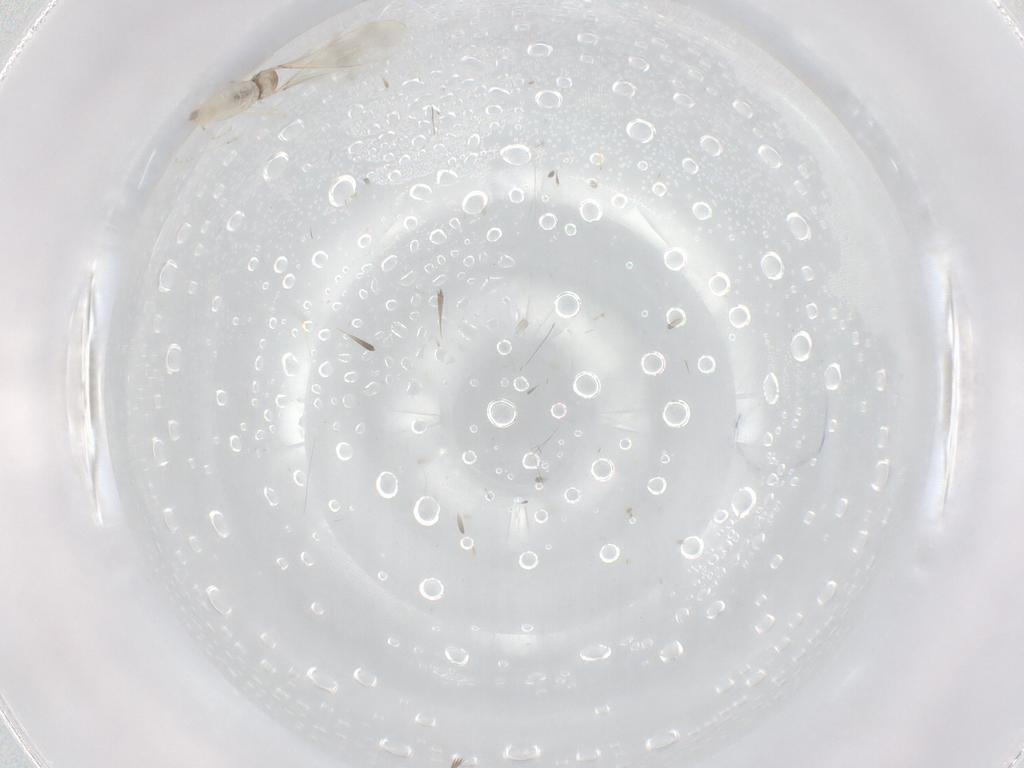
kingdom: Animalia
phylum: Arthropoda
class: Insecta
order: Diptera
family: Cecidomyiidae
